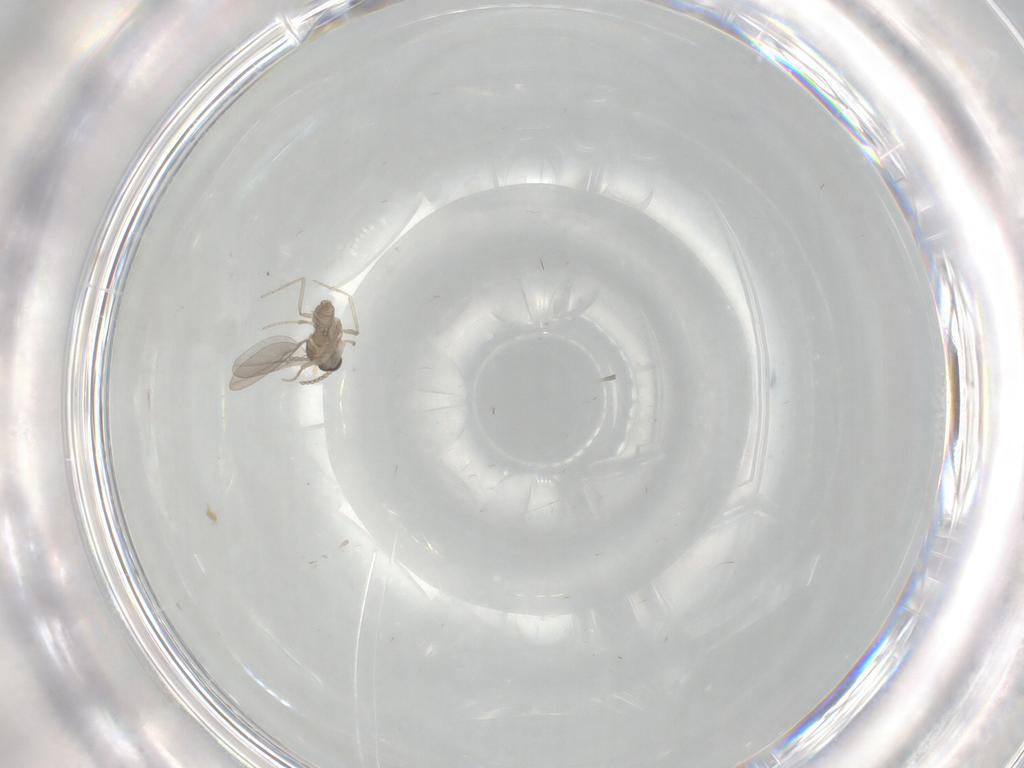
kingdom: Animalia
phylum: Arthropoda
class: Insecta
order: Diptera
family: Cecidomyiidae
